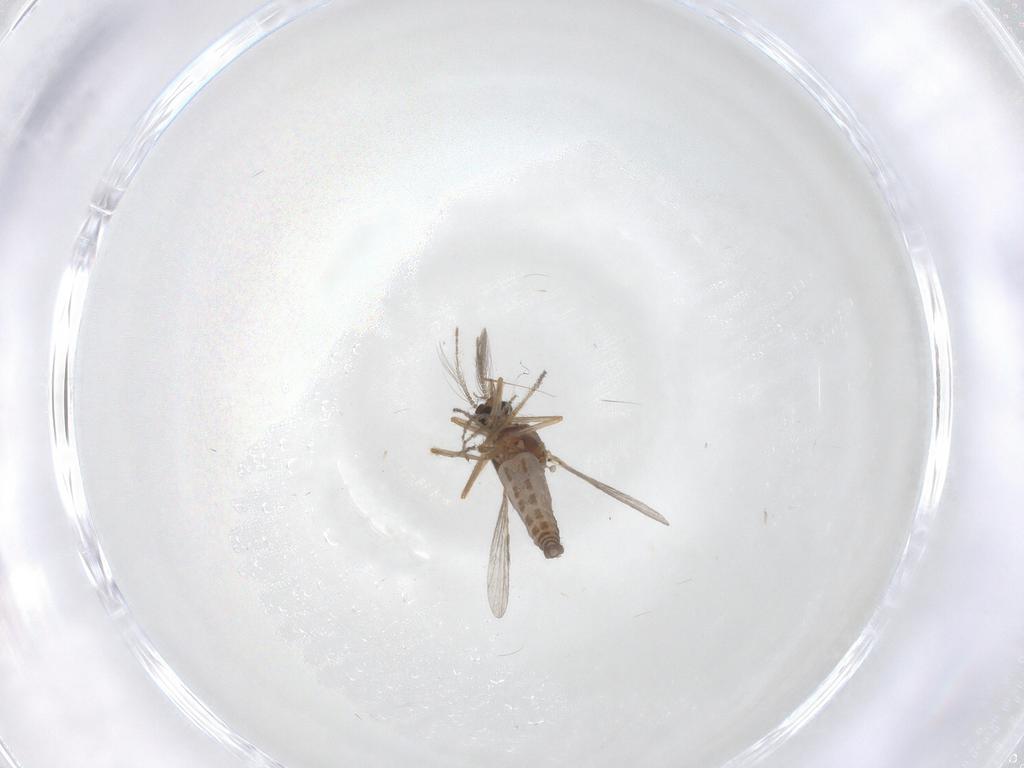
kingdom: Animalia
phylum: Arthropoda
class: Insecta
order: Diptera
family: Ceratopogonidae
